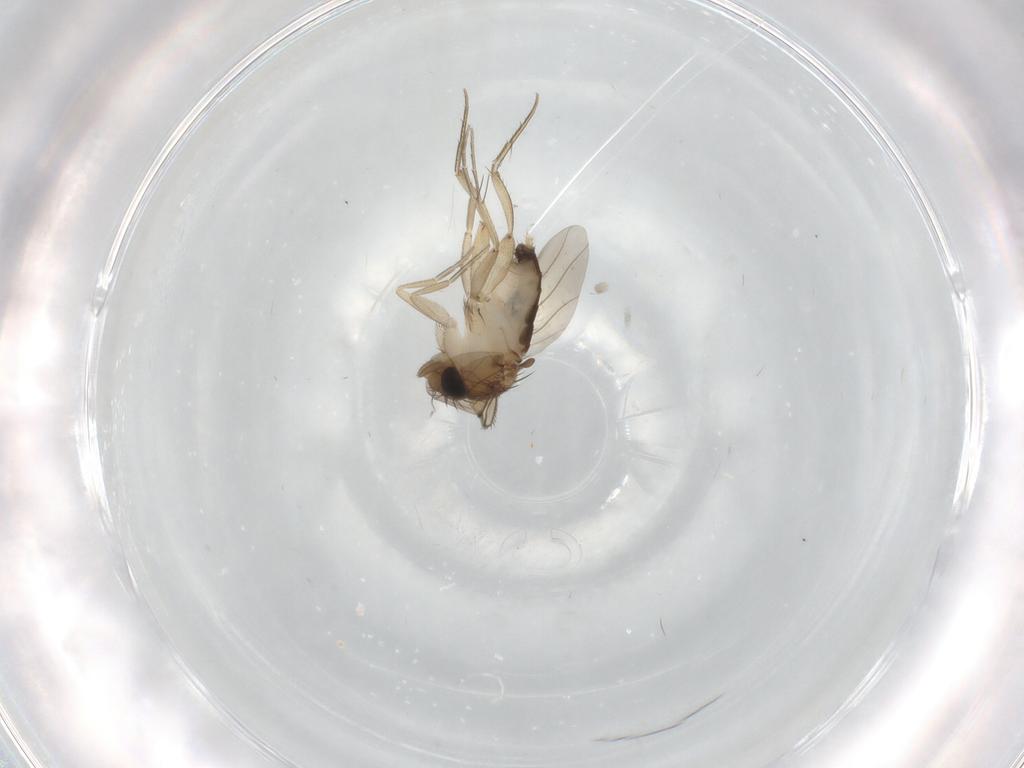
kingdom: Animalia
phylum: Arthropoda
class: Insecta
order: Diptera
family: Phoridae
